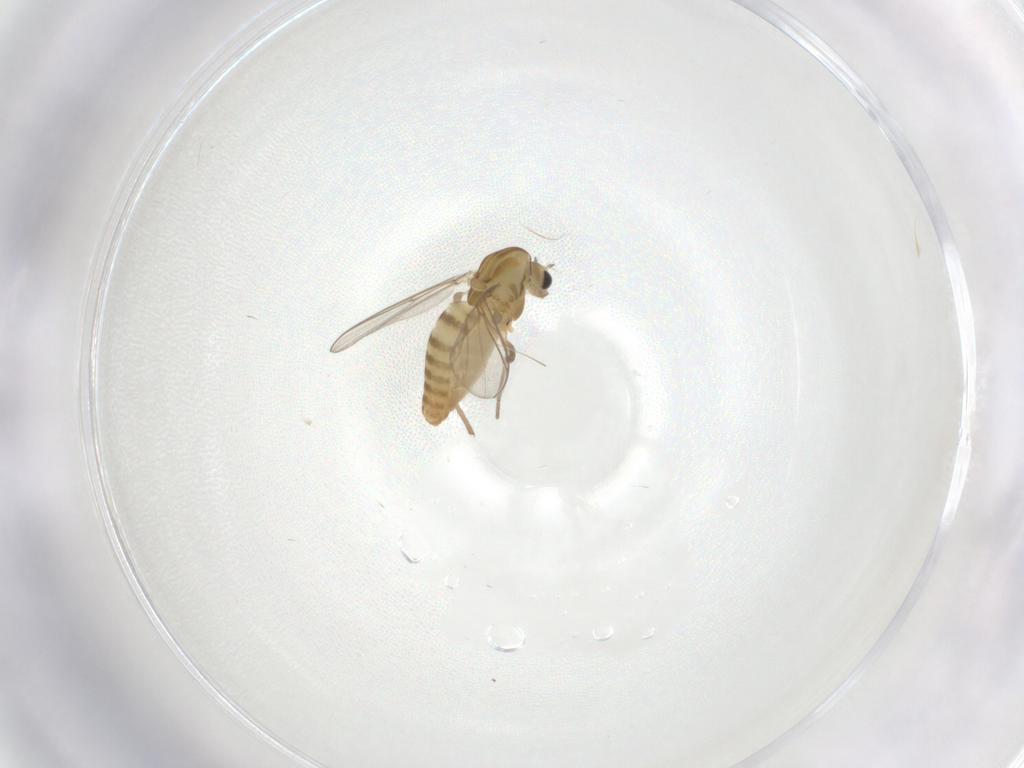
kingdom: Animalia
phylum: Arthropoda
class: Insecta
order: Diptera
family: Chironomidae
